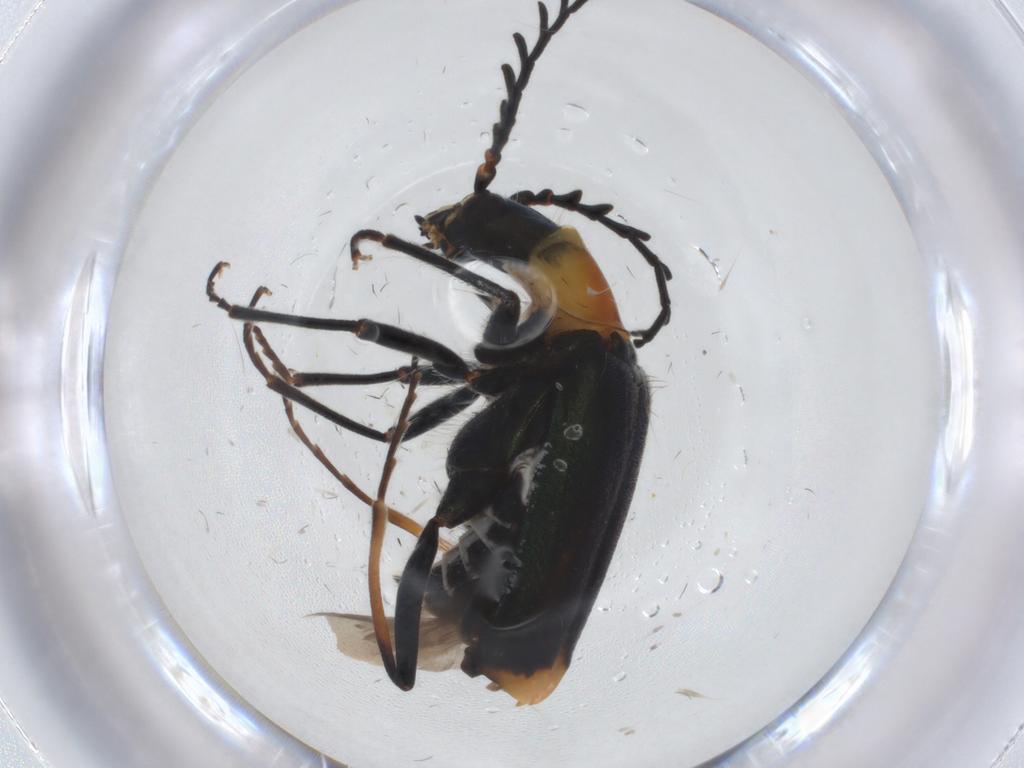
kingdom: Animalia
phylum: Arthropoda
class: Insecta
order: Coleoptera
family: Melyridae
